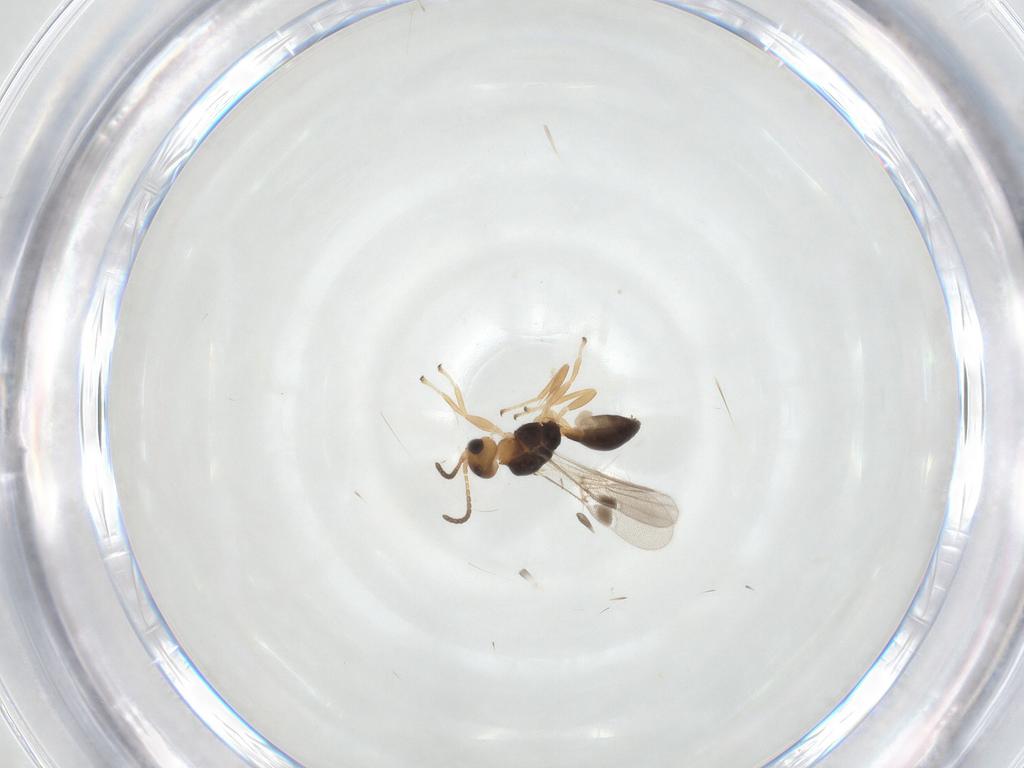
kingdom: Animalia
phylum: Arthropoda
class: Insecta
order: Hymenoptera
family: Braconidae
